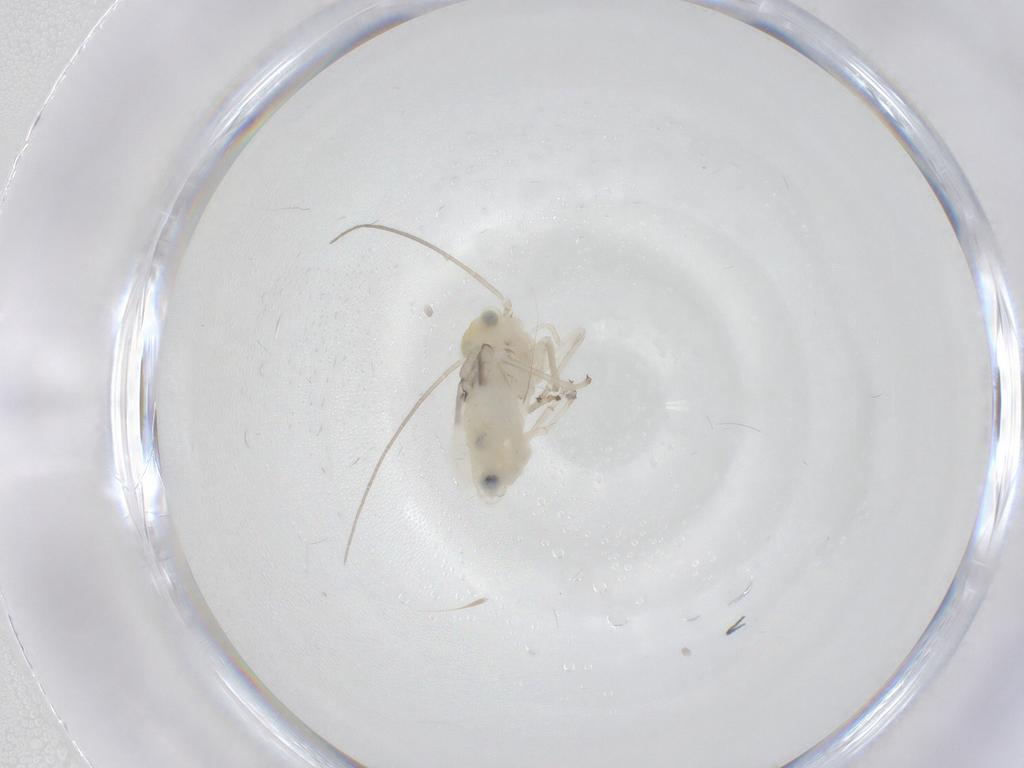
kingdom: Animalia
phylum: Arthropoda
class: Insecta
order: Psocodea
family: Caeciliusidae
